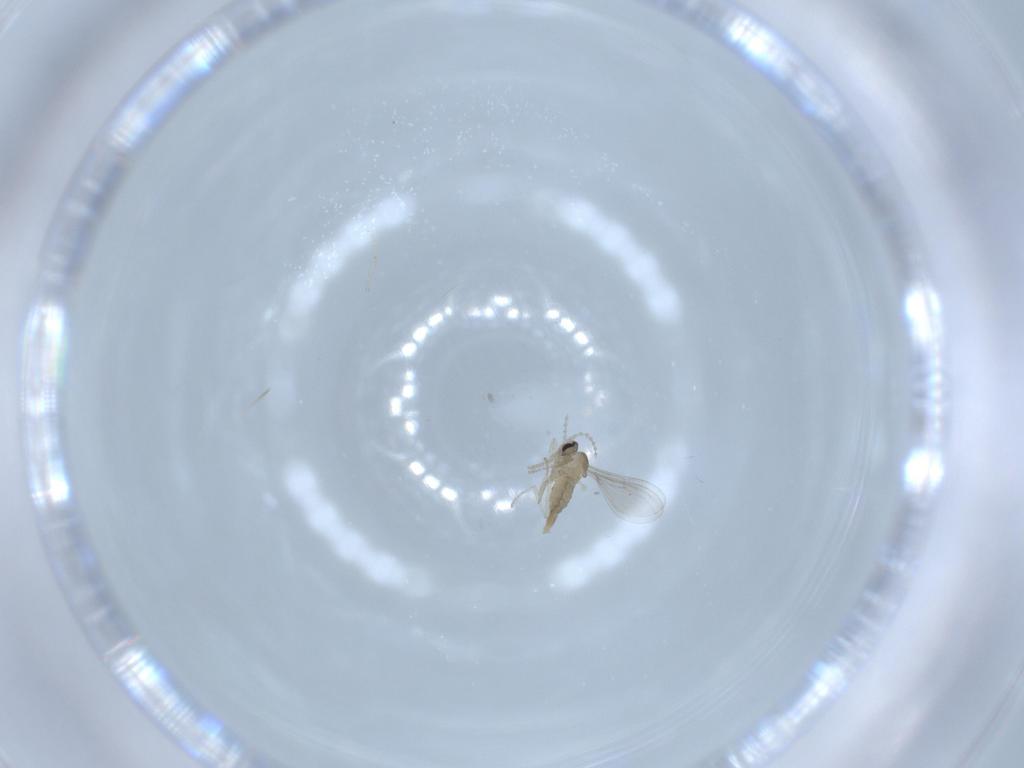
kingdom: Animalia
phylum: Arthropoda
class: Insecta
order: Diptera
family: Cecidomyiidae
